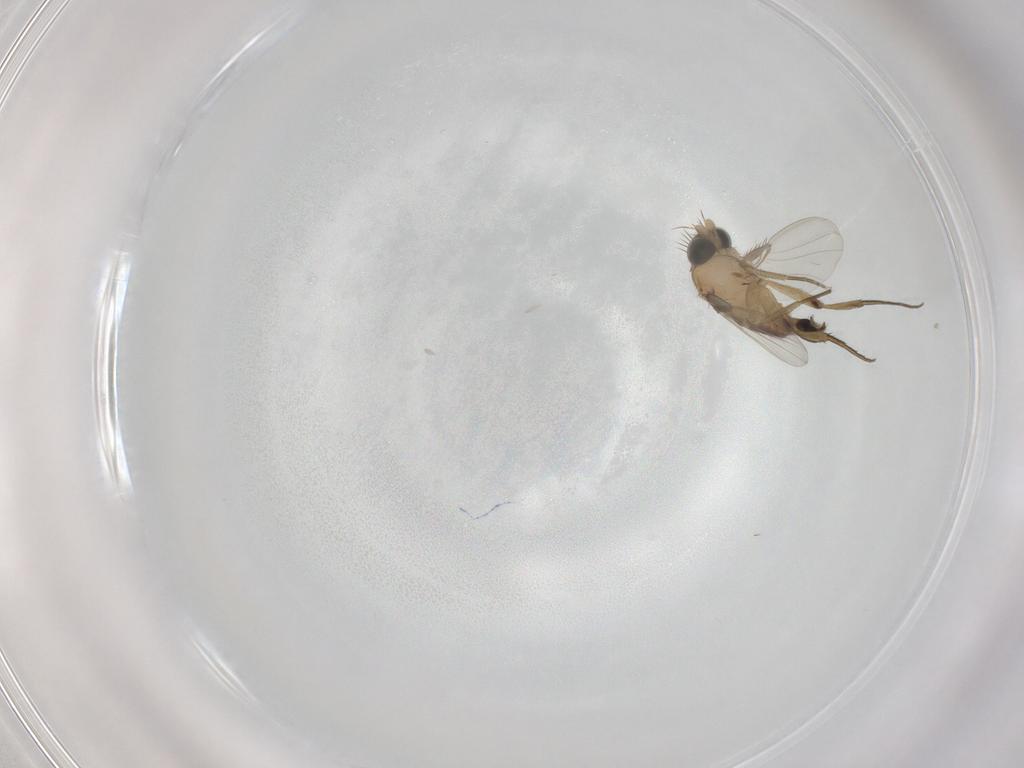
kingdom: Animalia
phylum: Arthropoda
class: Insecta
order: Diptera
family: Phoridae
